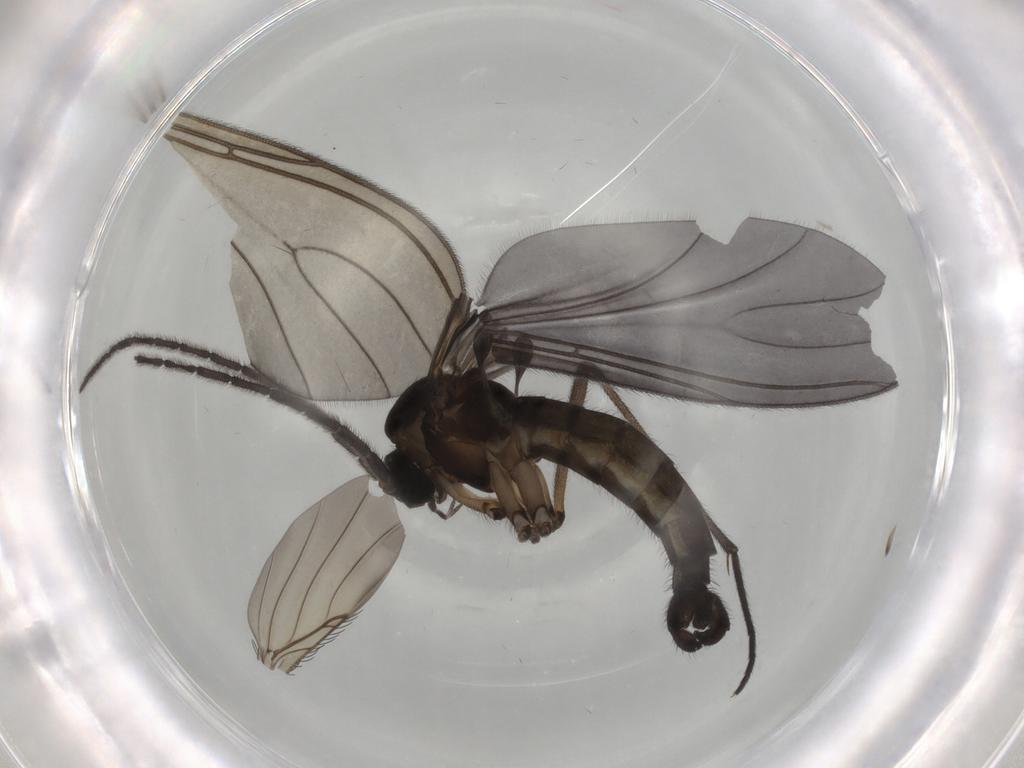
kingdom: Animalia
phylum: Arthropoda
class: Insecta
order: Diptera
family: Sciaridae
